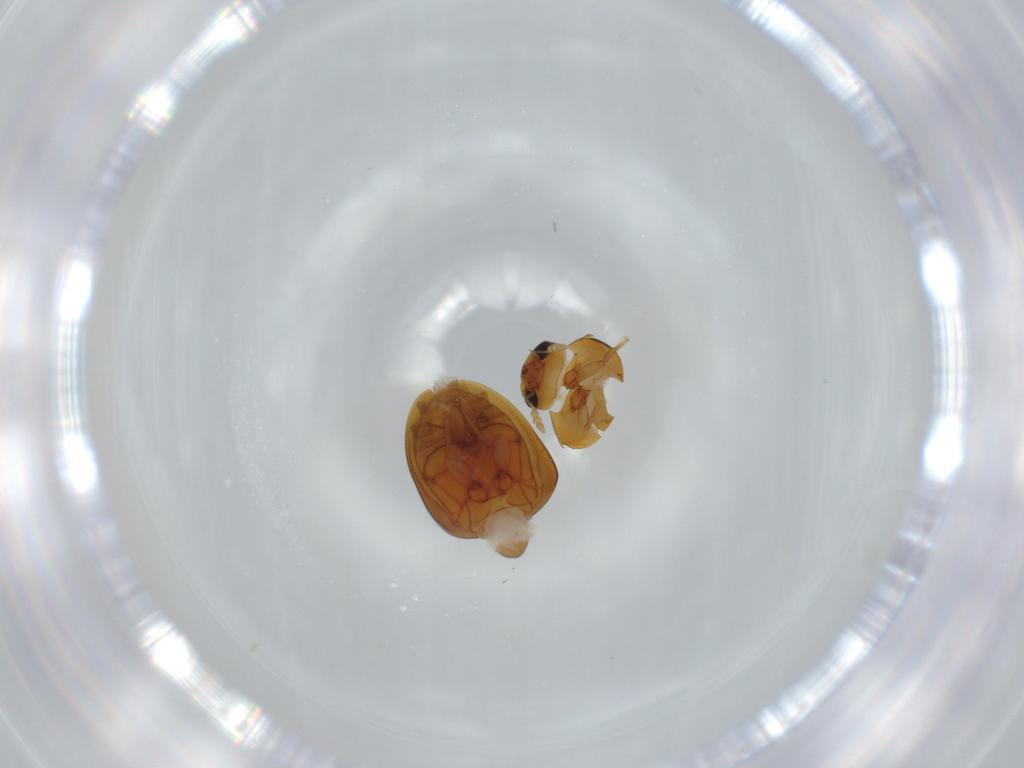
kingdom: Animalia
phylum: Arthropoda
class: Insecta
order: Coleoptera
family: Phalacridae
